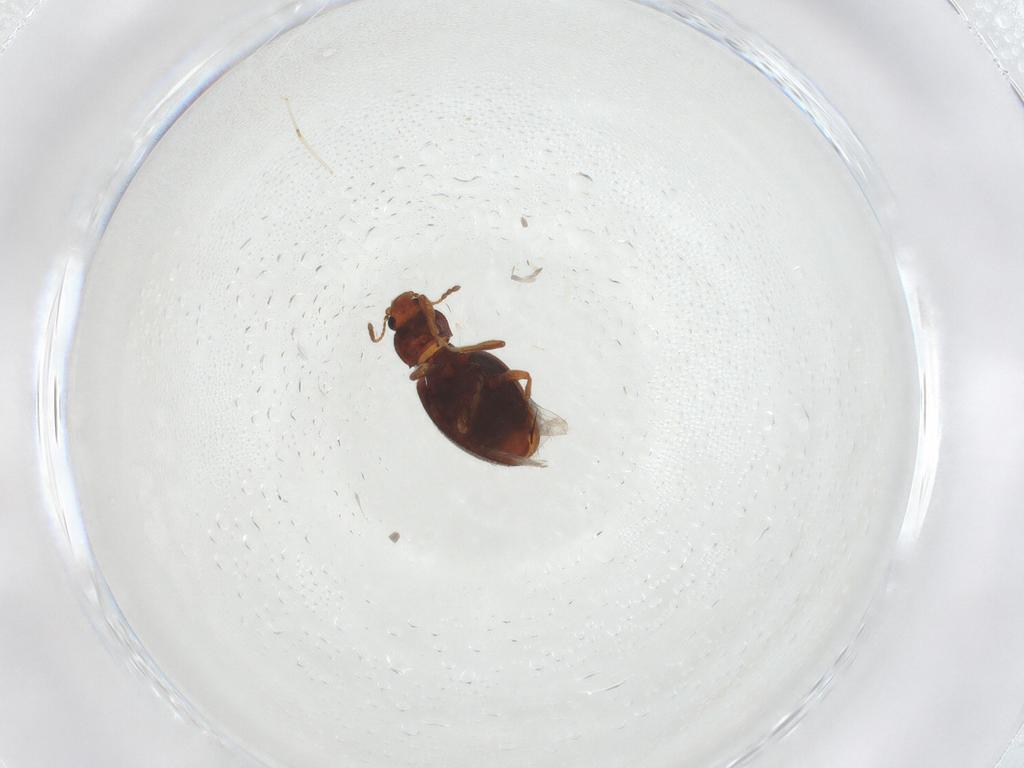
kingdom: Animalia
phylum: Arthropoda
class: Insecta
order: Coleoptera
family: Latridiidae
